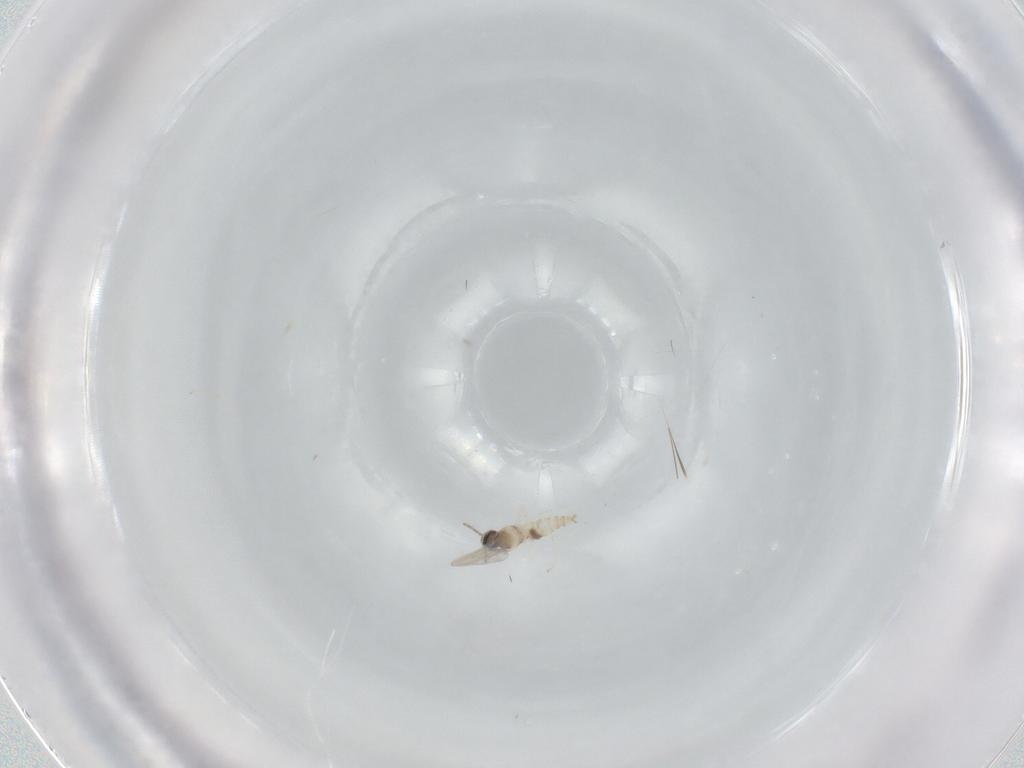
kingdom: Animalia
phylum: Arthropoda
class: Insecta
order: Diptera
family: Cecidomyiidae
